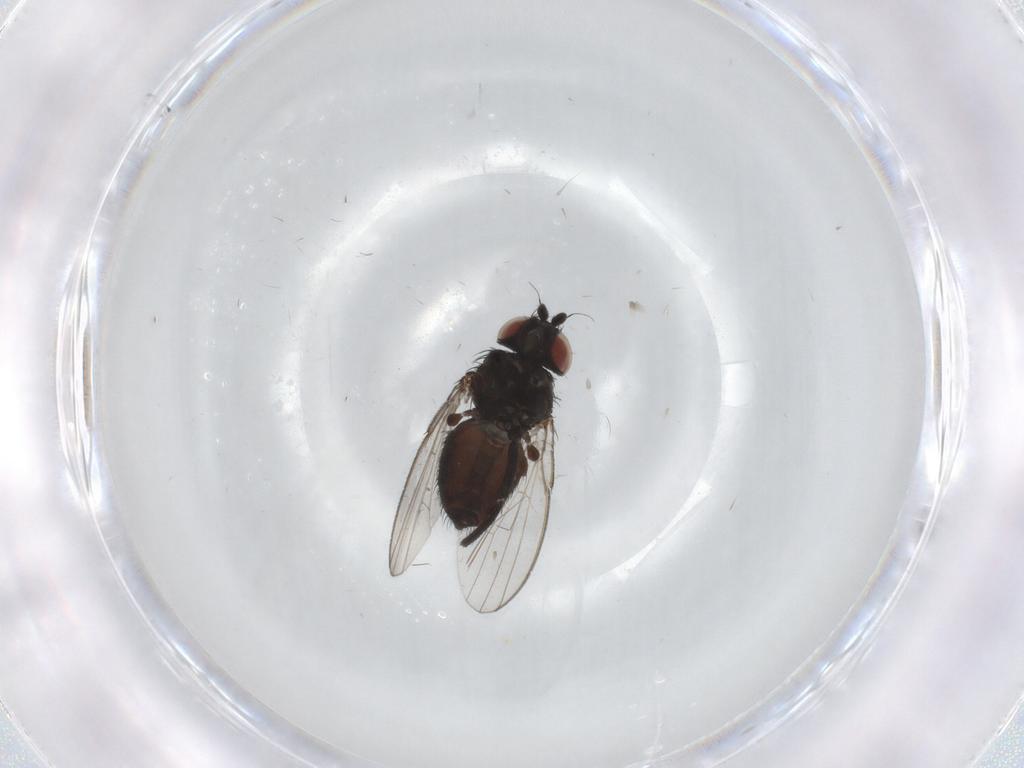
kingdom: Animalia
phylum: Arthropoda
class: Insecta
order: Diptera
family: Milichiidae
